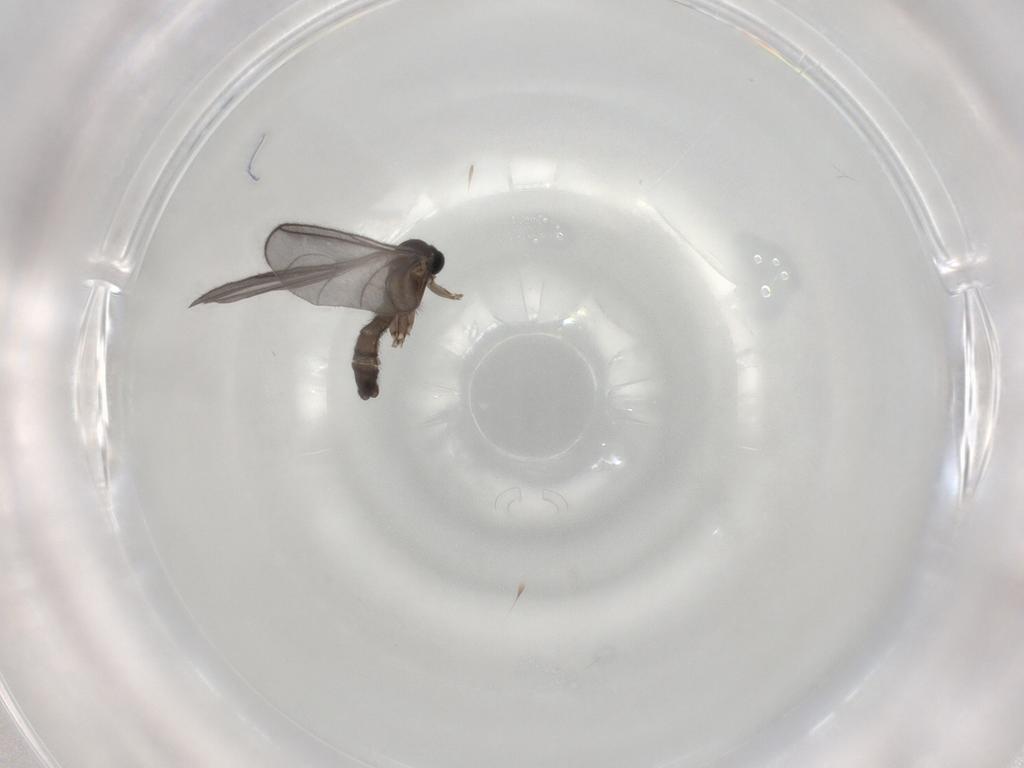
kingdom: Animalia
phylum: Arthropoda
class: Insecta
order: Diptera
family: Sciaridae
